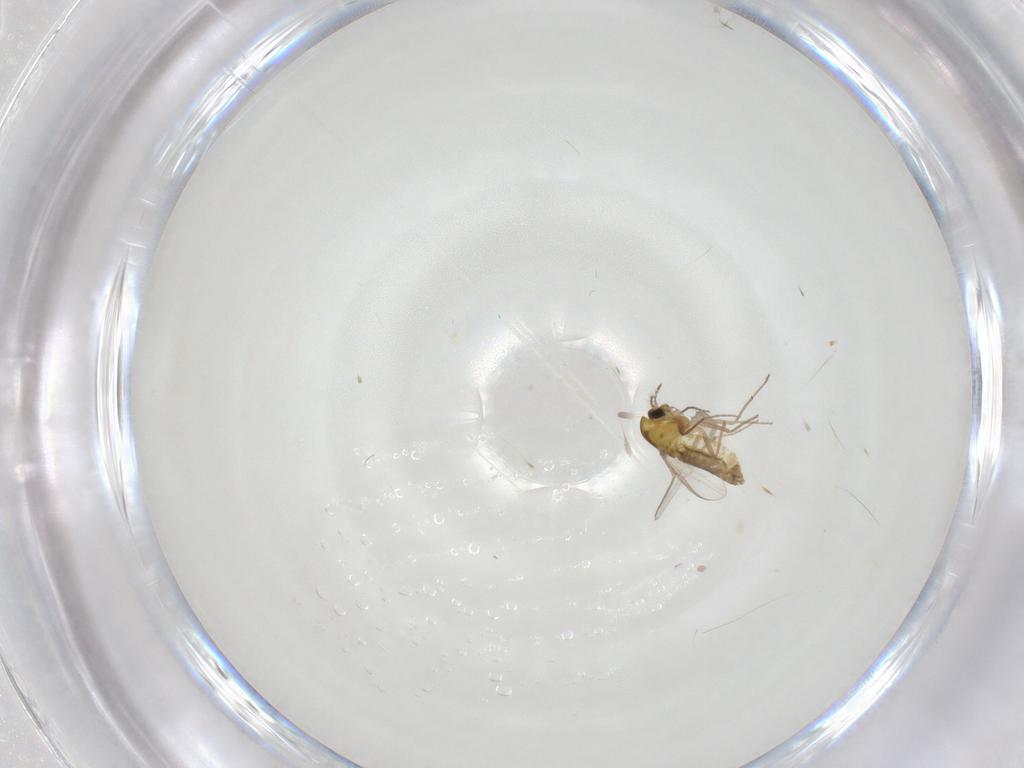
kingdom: Animalia
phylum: Arthropoda
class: Insecta
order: Diptera
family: Chironomidae
